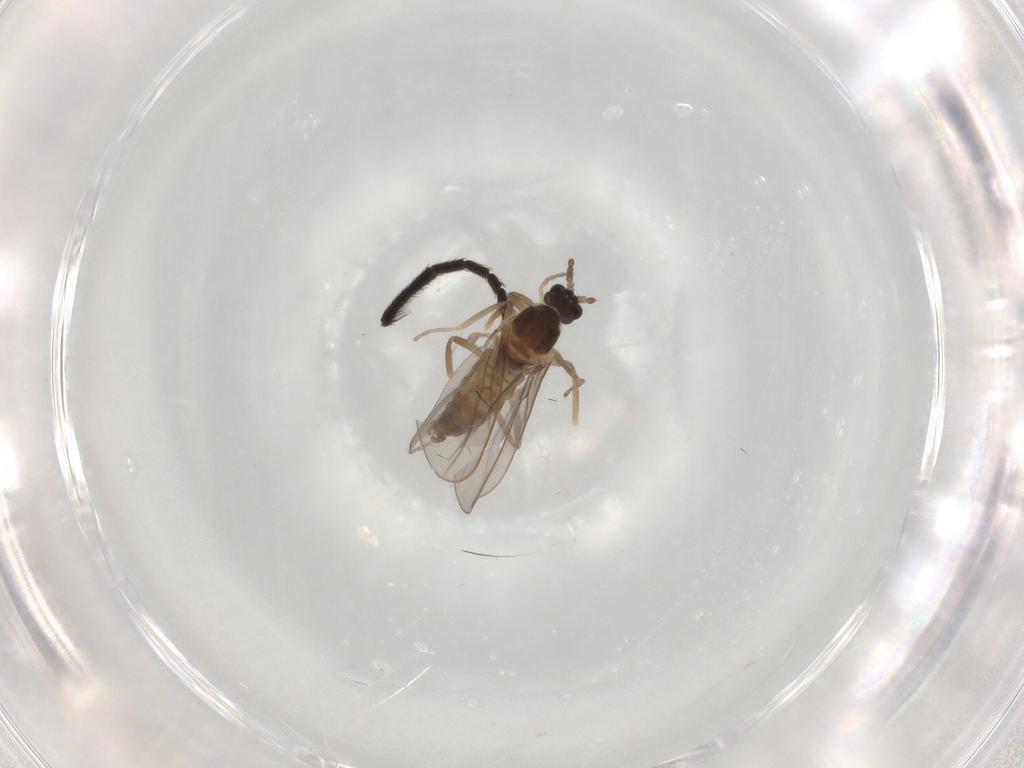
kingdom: Animalia
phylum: Arthropoda
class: Insecta
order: Diptera
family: Cecidomyiidae
